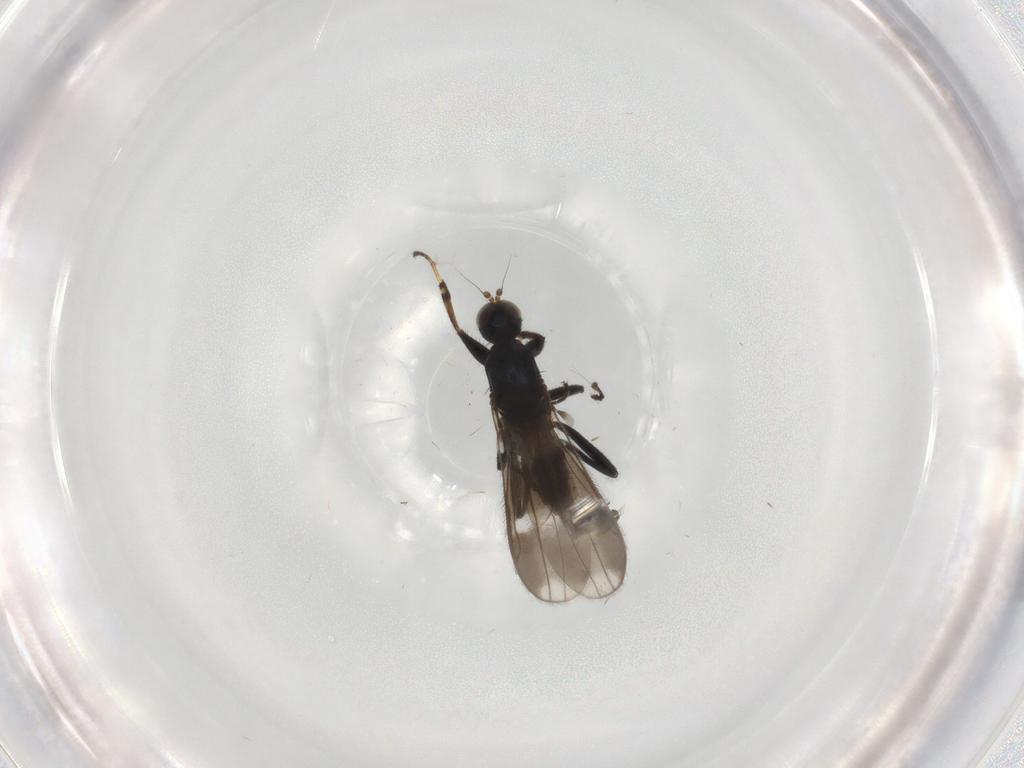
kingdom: Animalia
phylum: Arthropoda
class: Insecta
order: Diptera
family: Hybotidae
